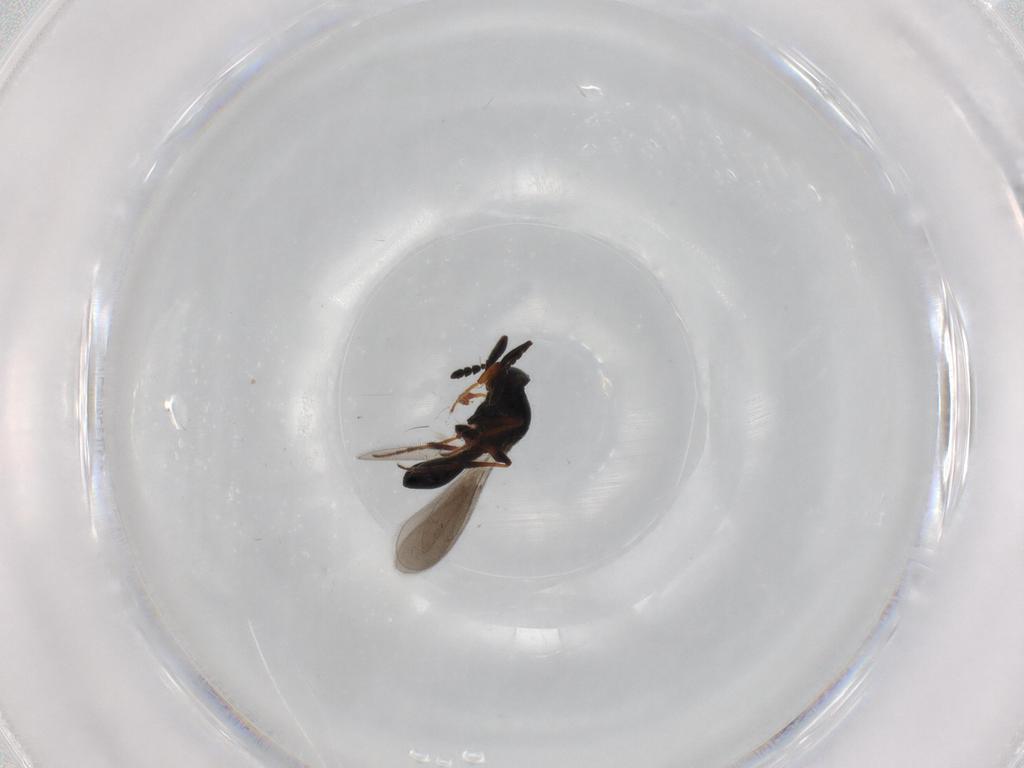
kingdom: Animalia
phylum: Arthropoda
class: Insecta
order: Hymenoptera
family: Platygastridae
